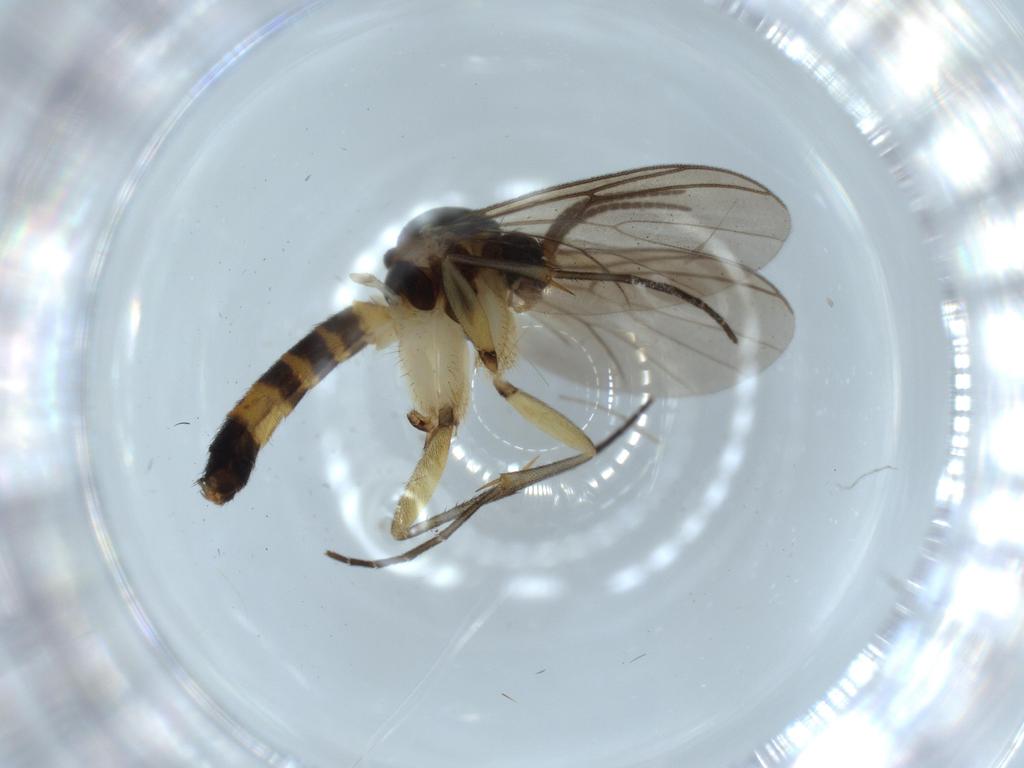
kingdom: Animalia
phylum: Arthropoda
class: Insecta
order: Diptera
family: Mycetophilidae
